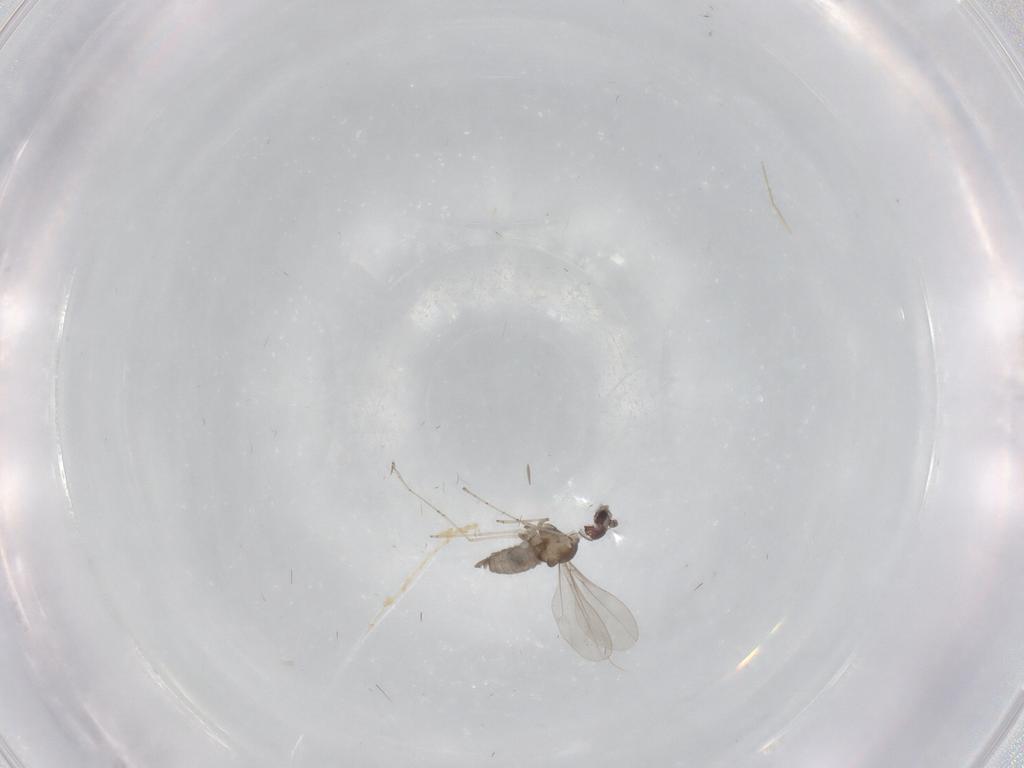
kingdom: Animalia
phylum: Arthropoda
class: Insecta
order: Diptera
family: Cecidomyiidae
